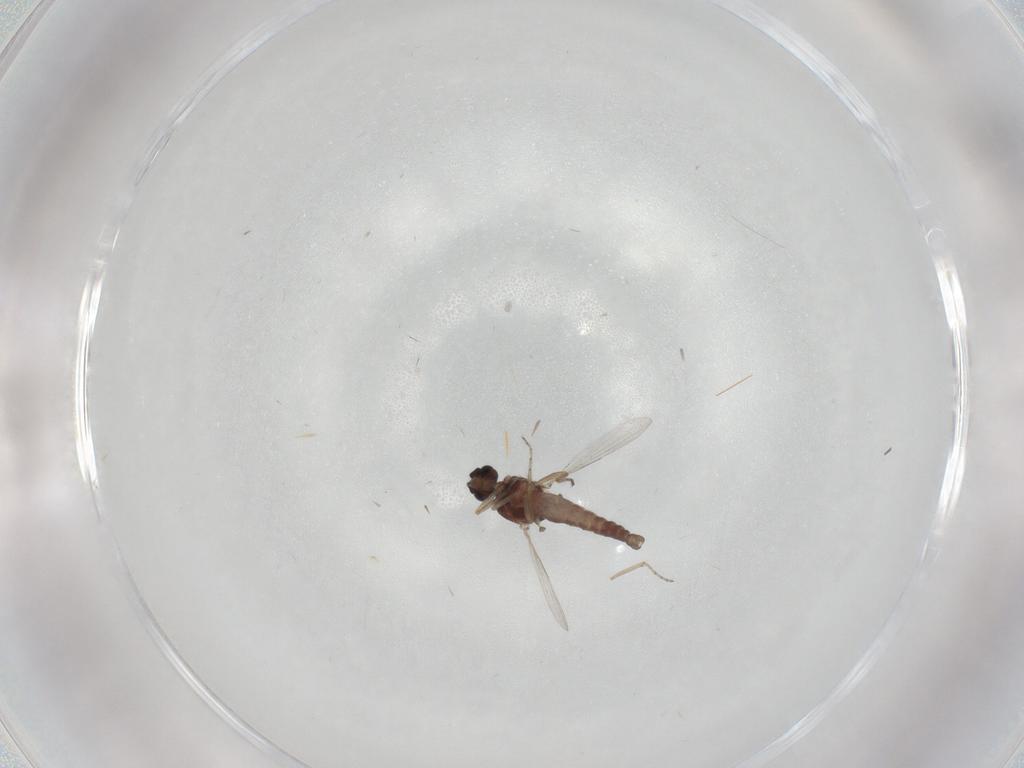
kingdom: Animalia
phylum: Arthropoda
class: Insecta
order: Diptera
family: Ceratopogonidae
